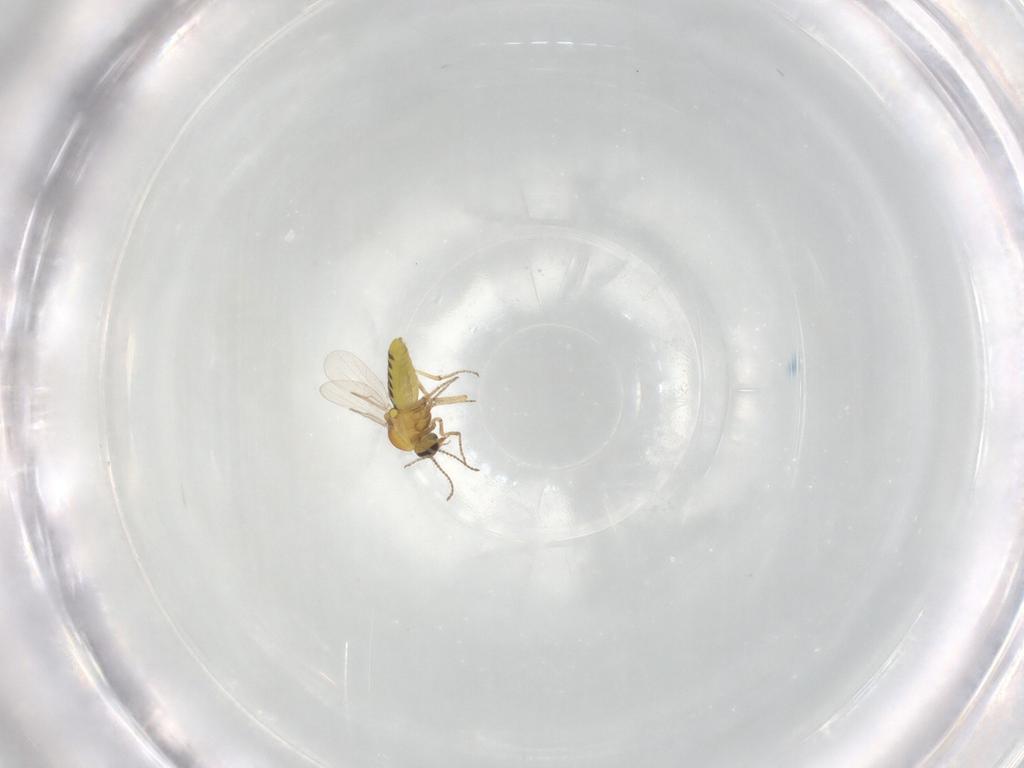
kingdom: Animalia
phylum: Arthropoda
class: Insecta
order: Diptera
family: Ceratopogonidae
